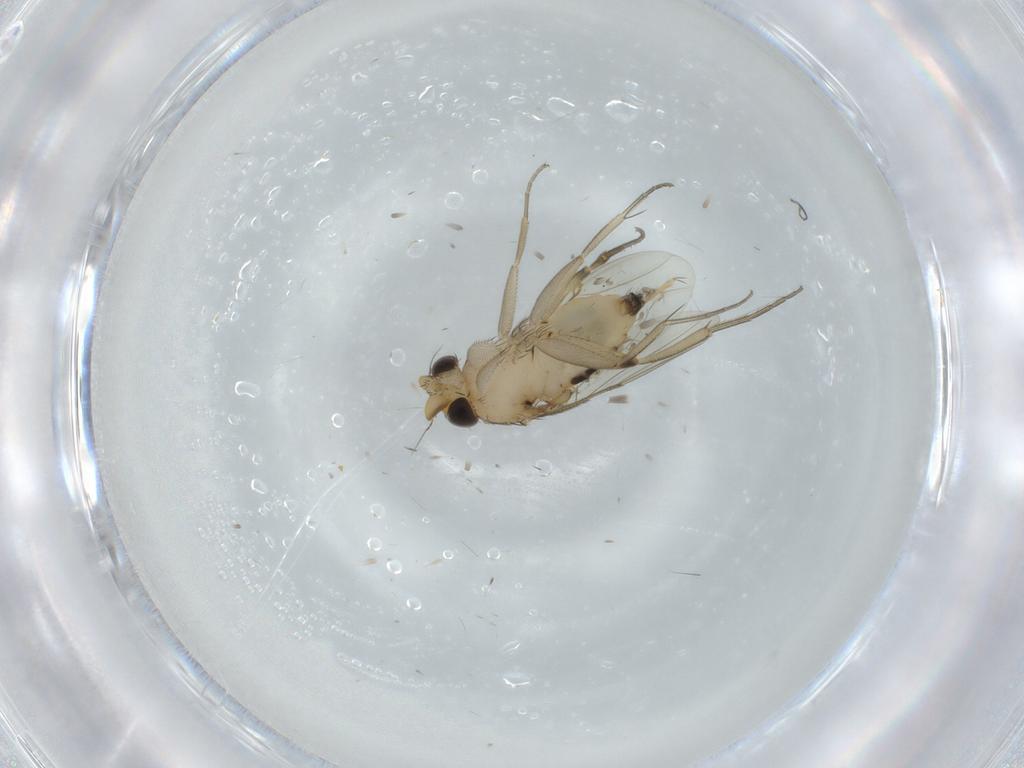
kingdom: Animalia
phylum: Arthropoda
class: Insecta
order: Diptera
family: Phoridae
